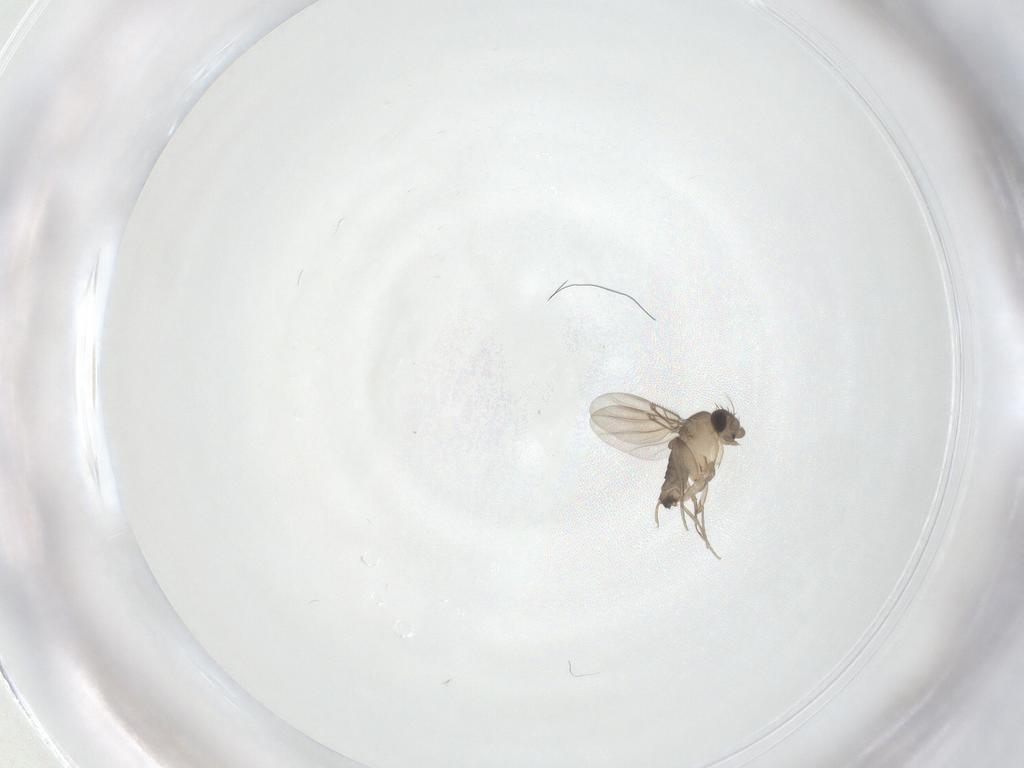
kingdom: Animalia
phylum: Arthropoda
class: Insecta
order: Diptera
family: Phoridae
